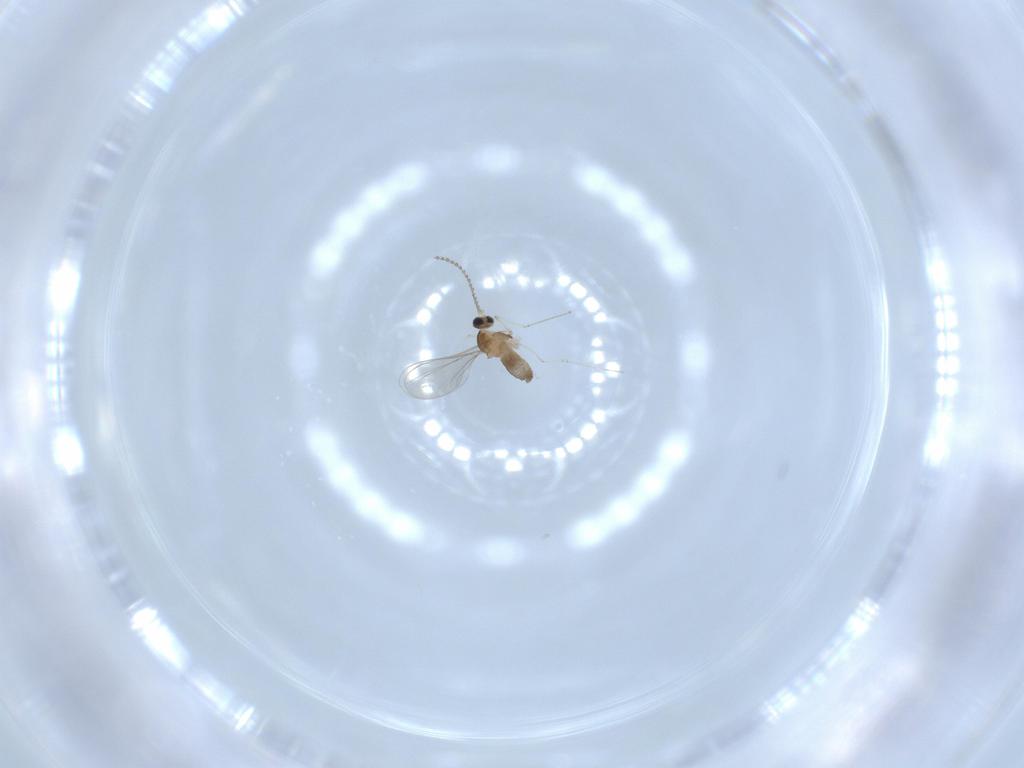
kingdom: Animalia
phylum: Arthropoda
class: Insecta
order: Diptera
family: Cecidomyiidae
